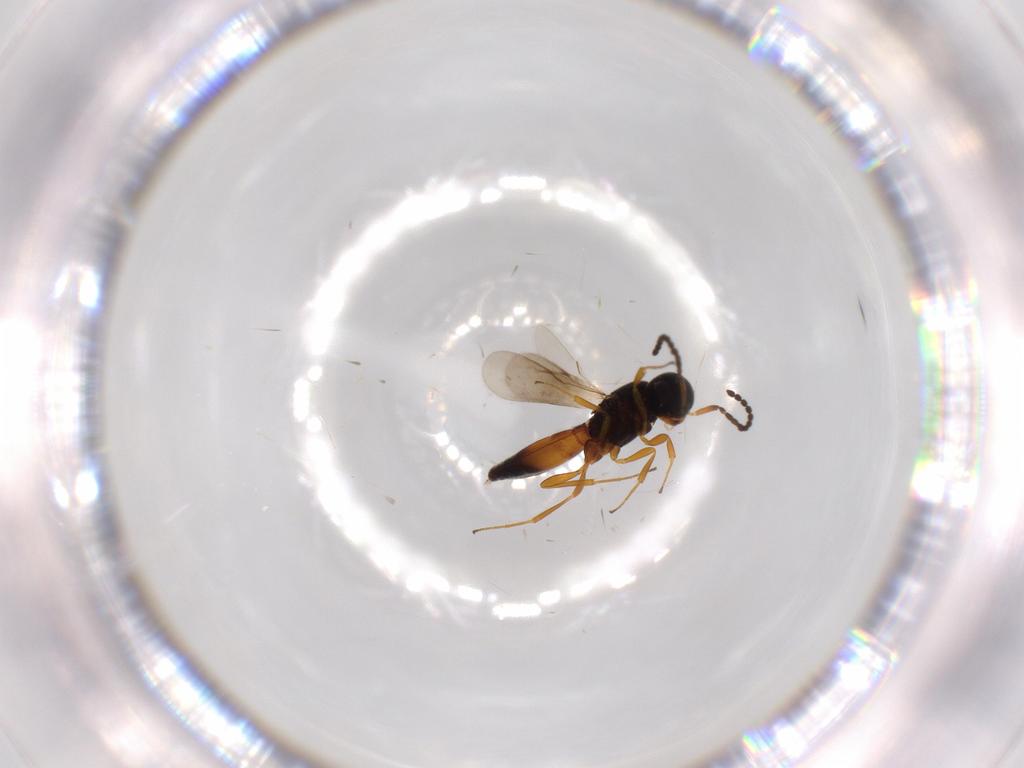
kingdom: Animalia
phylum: Arthropoda
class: Insecta
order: Hymenoptera
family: Scelionidae
